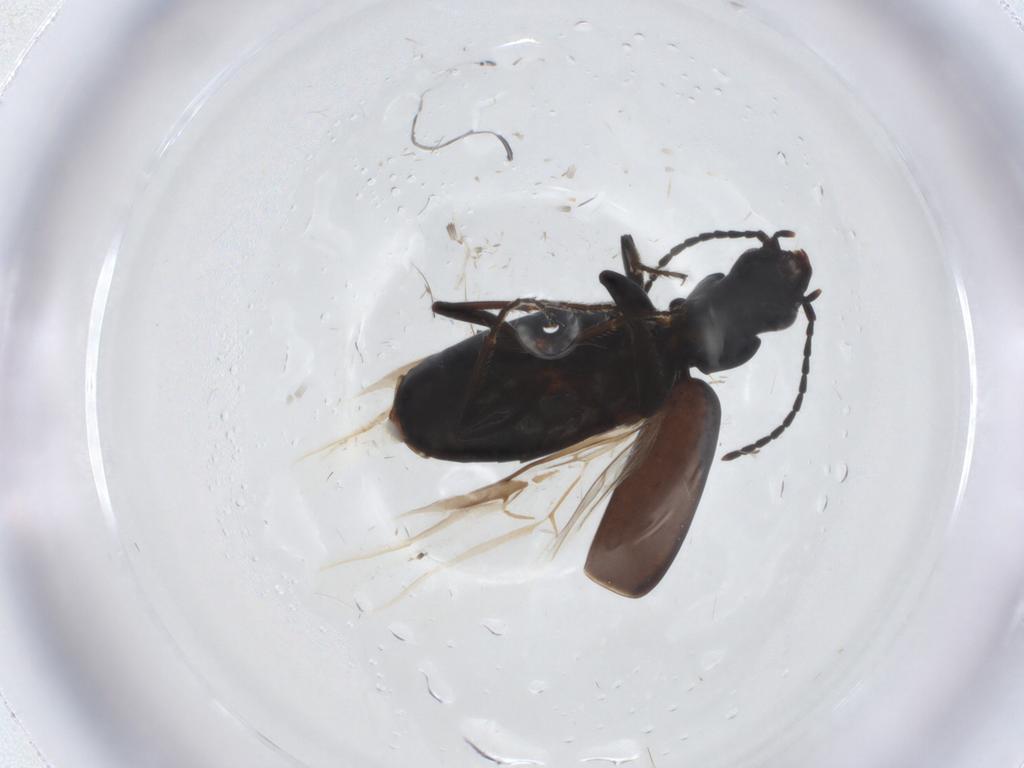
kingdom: Animalia
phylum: Arthropoda
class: Insecta
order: Coleoptera
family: Carabidae
